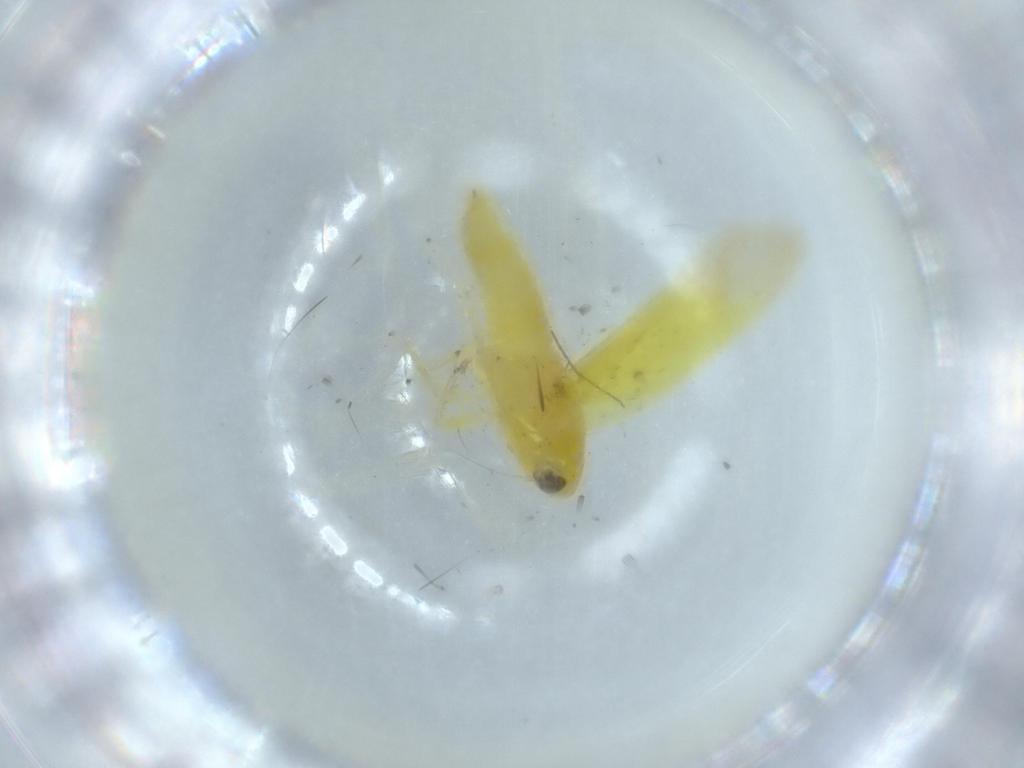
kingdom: Animalia
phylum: Arthropoda
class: Insecta
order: Hemiptera
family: Cicadellidae
